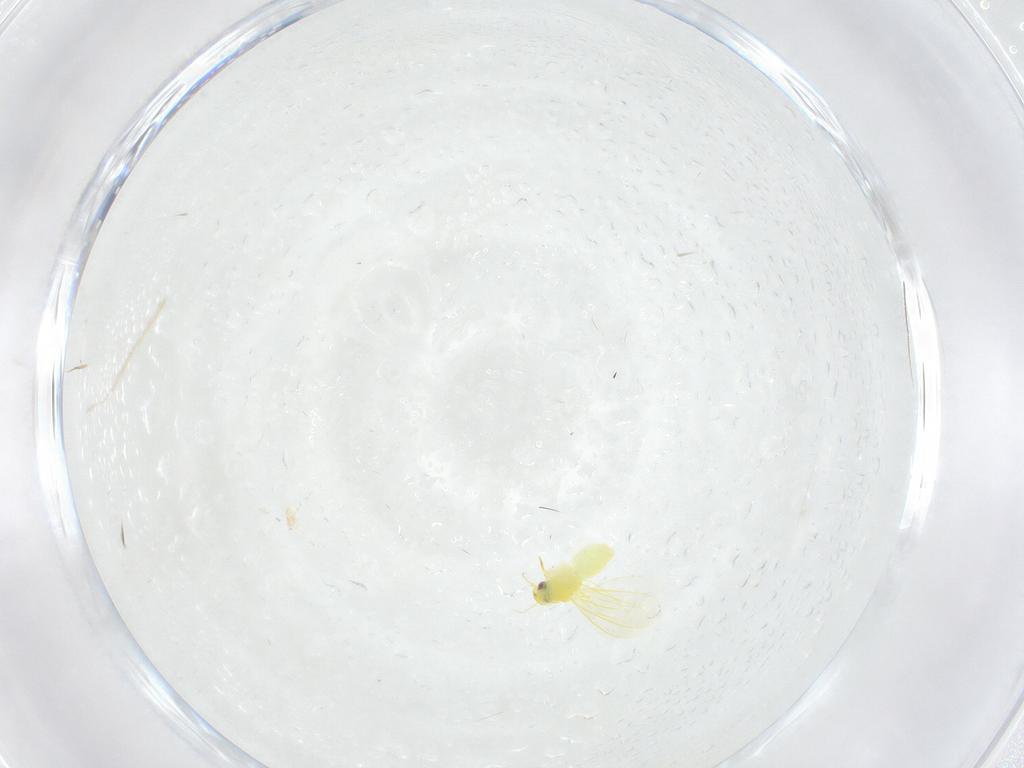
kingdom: Animalia
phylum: Arthropoda
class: Insecta
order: Hemiptera
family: Aleyrodidae
